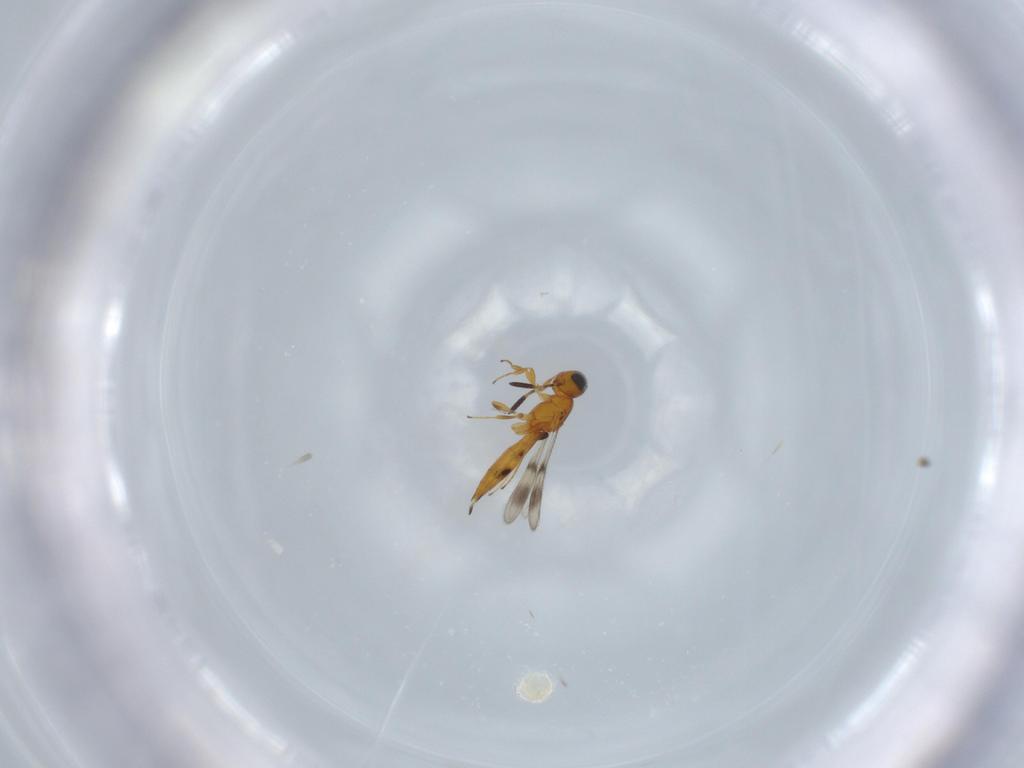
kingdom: Animalia
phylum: Arthropoda
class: Insecta
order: Hymenoptera
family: Scelionidae
